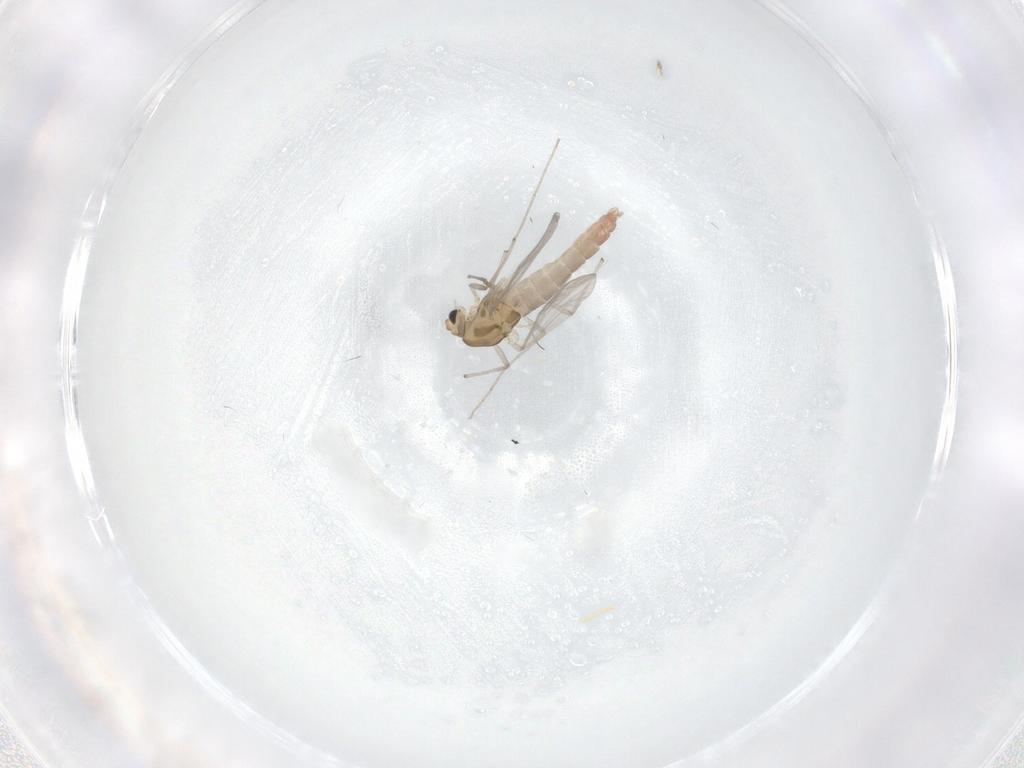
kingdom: Animalia
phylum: Arthropoda
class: Insecta
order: Diptera
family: Chironomidae
